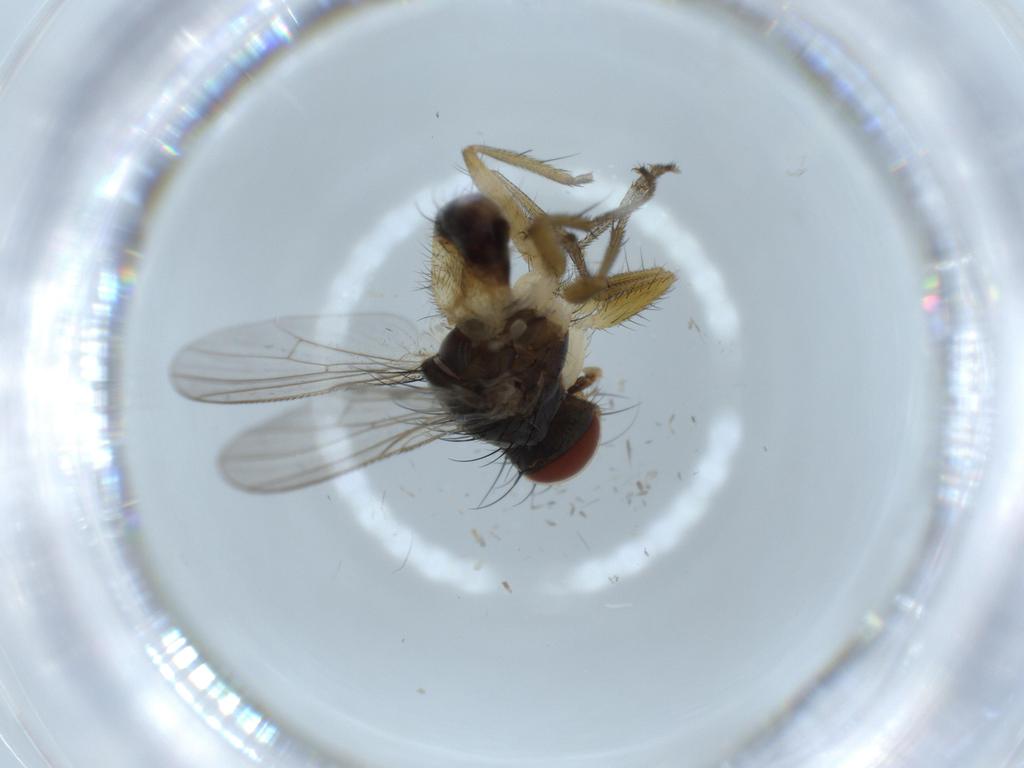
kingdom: Animalia
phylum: Arthropoda
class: Insecta
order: Diptera
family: Muscidae
